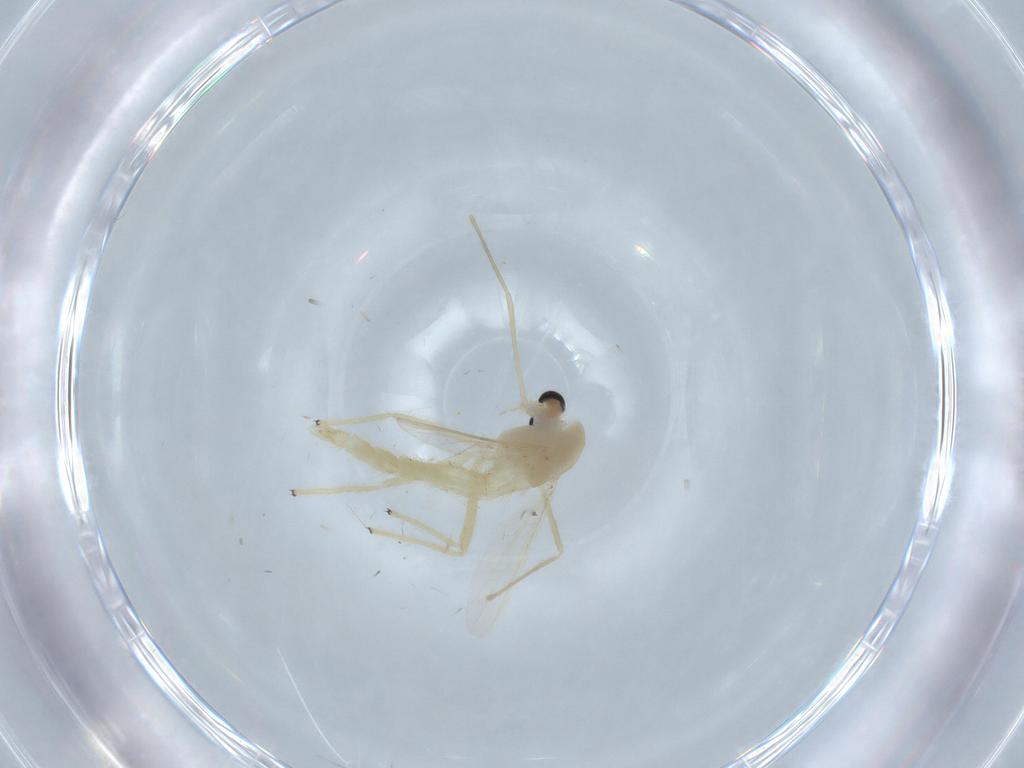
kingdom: Animalia
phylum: Arthropoda
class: Insecta
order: Diptera
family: Chironomidae
